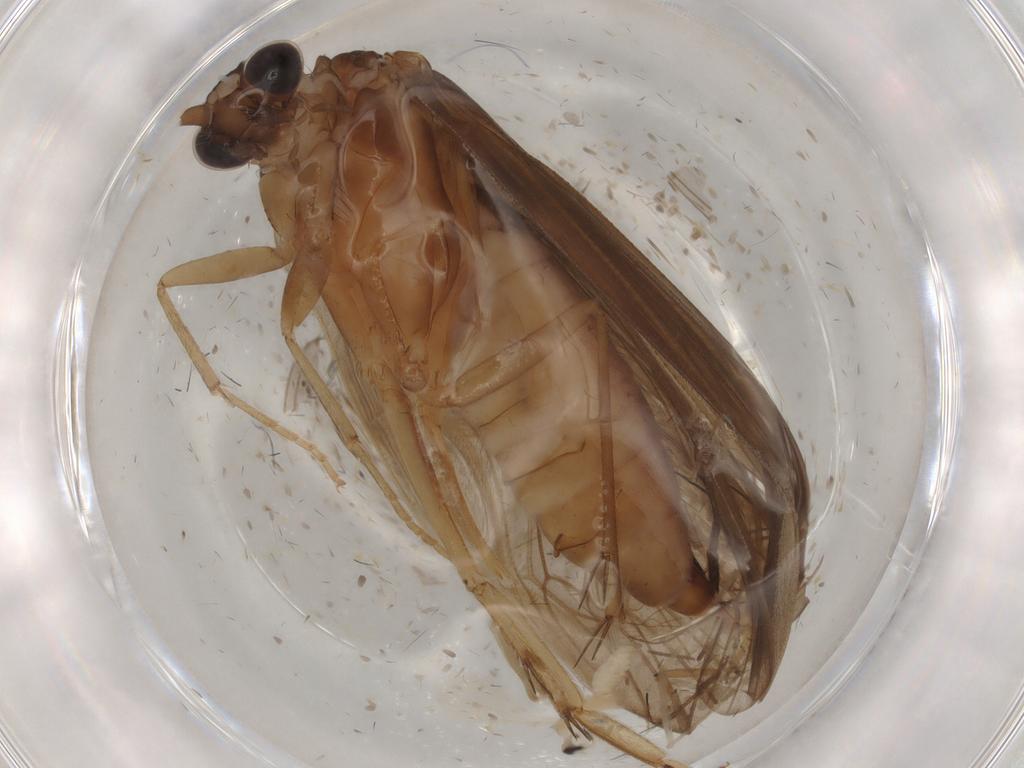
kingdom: Animalia
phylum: Arthropoda
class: Insecta
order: Trichoptera
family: Glossosomatidae
